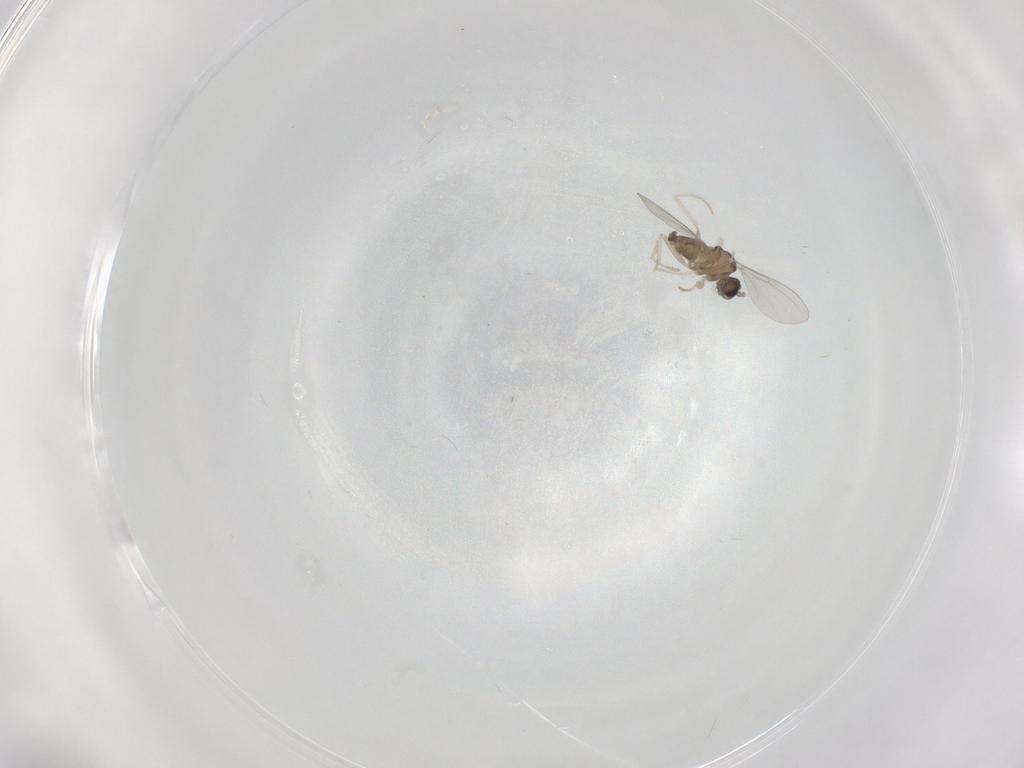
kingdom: Animalia
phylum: Arthropoda
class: Insecta
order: Diptera
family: Cecidomyiidae
